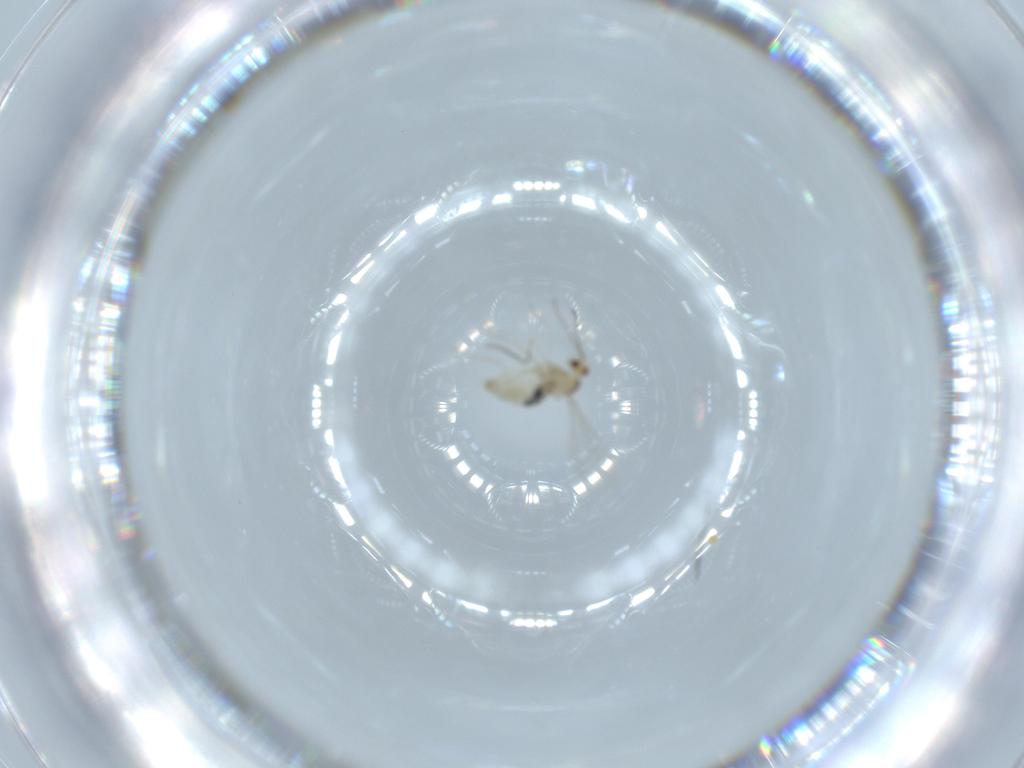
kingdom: Animalia
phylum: Arthropoda
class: Insecta
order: Diptera
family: Cecidomyiidae
